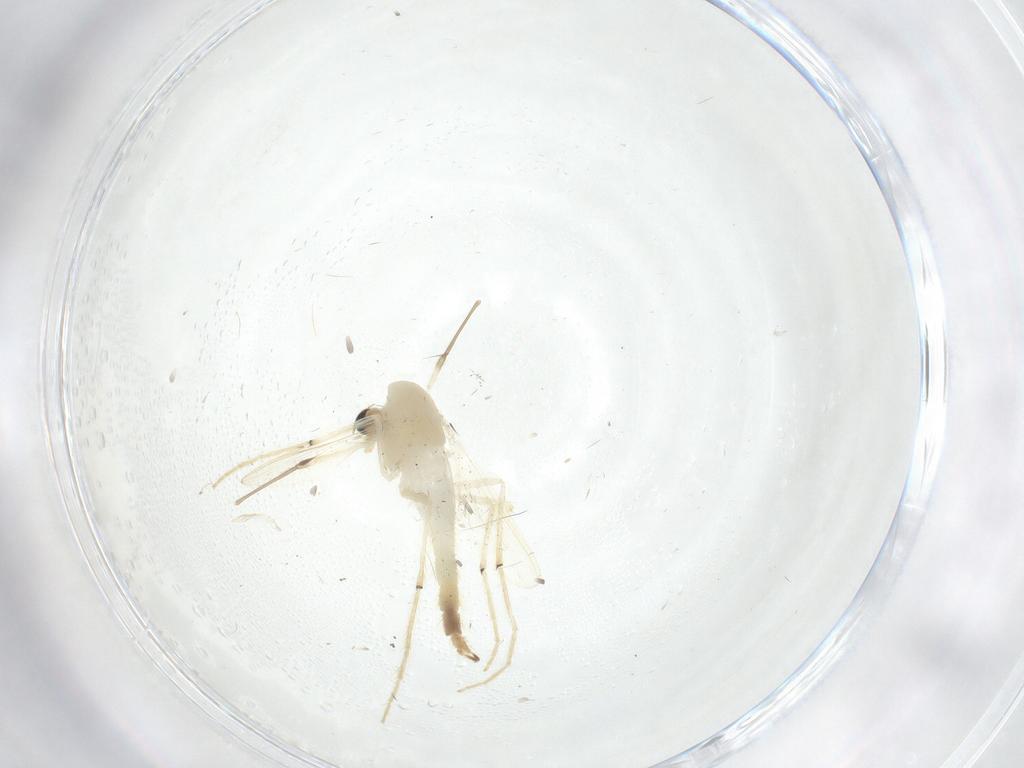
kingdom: Animalia
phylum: Arthropoda
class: Insecta
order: Diptera
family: Chironomidae
